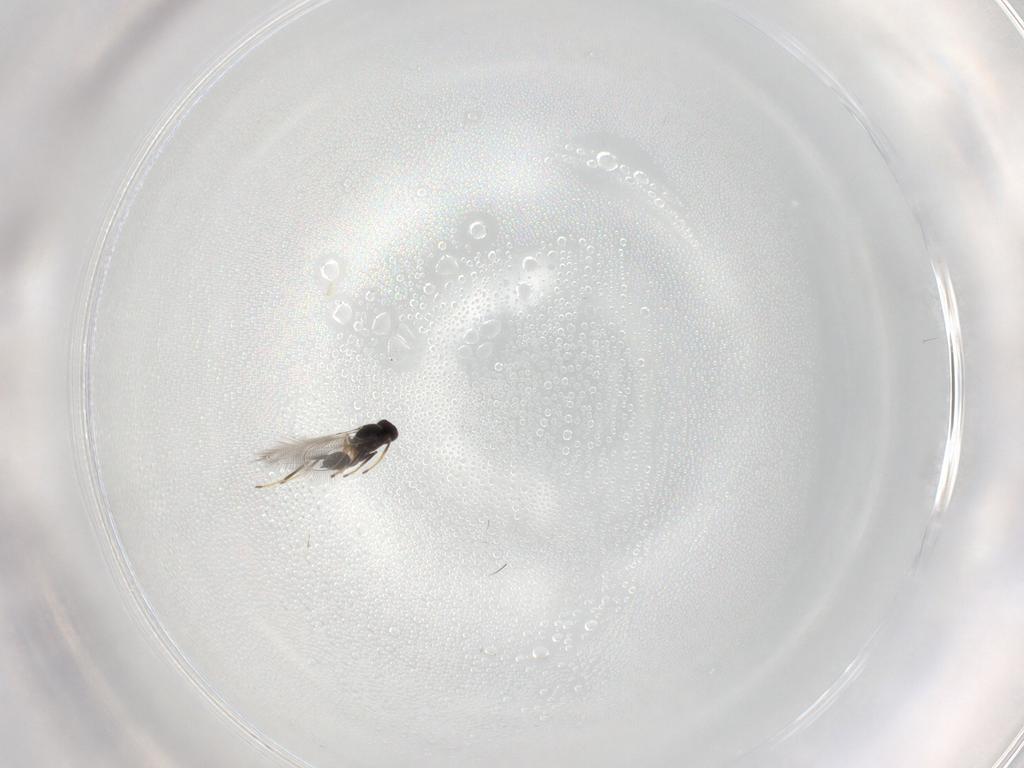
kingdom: Animalia
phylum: Arthropoda
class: Insecta
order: Hymenoptera
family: Mymaridae
